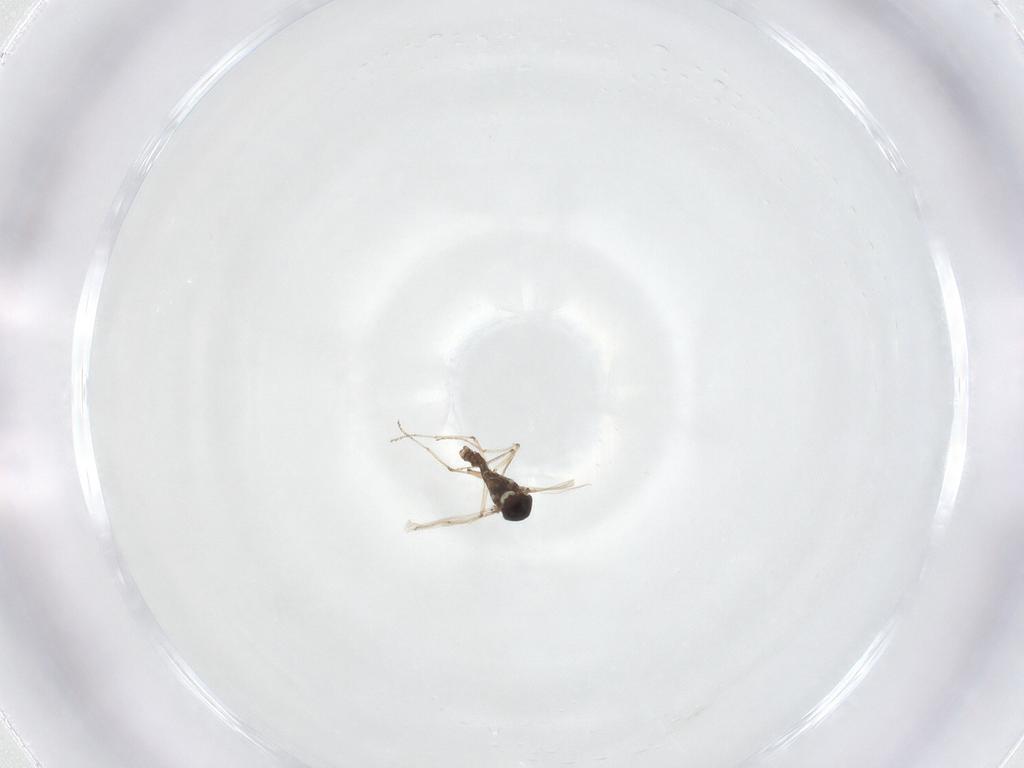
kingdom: Animalia
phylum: Arthropoda
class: Insecta
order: Diptera
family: Ceratopogonidae
